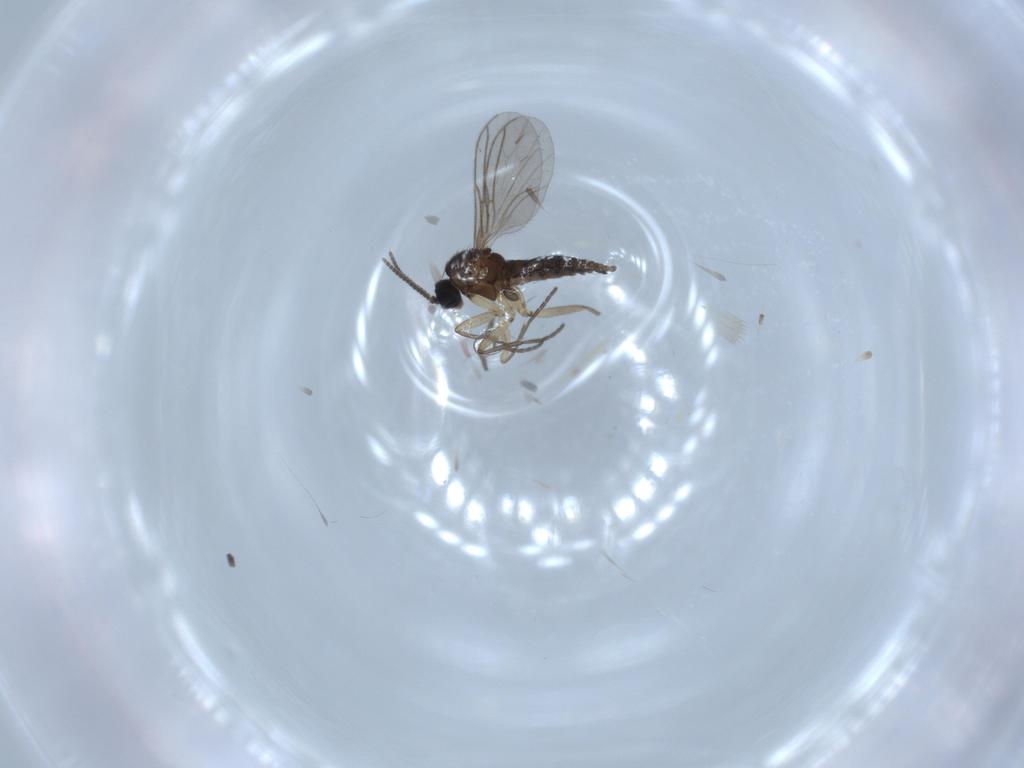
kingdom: Animalia
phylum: Arthropoda
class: Insecta
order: Diptera
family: Sciaridae
